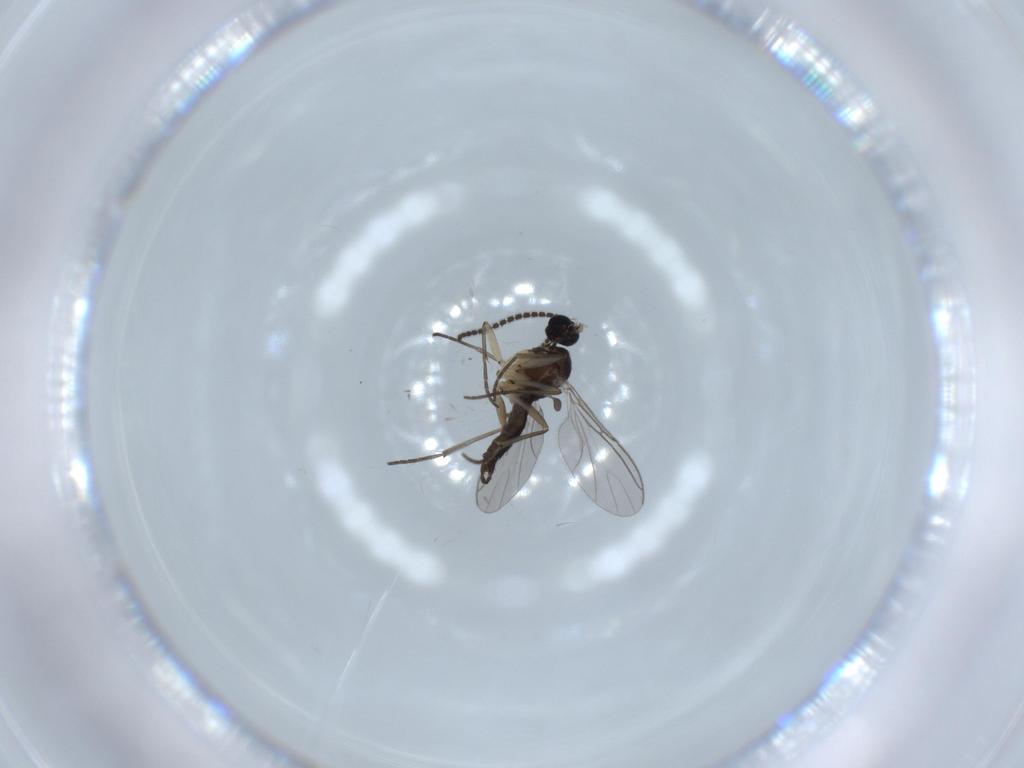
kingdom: Animalia
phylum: Arthropoda
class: Insecta
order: Diptera
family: Sciaridae
